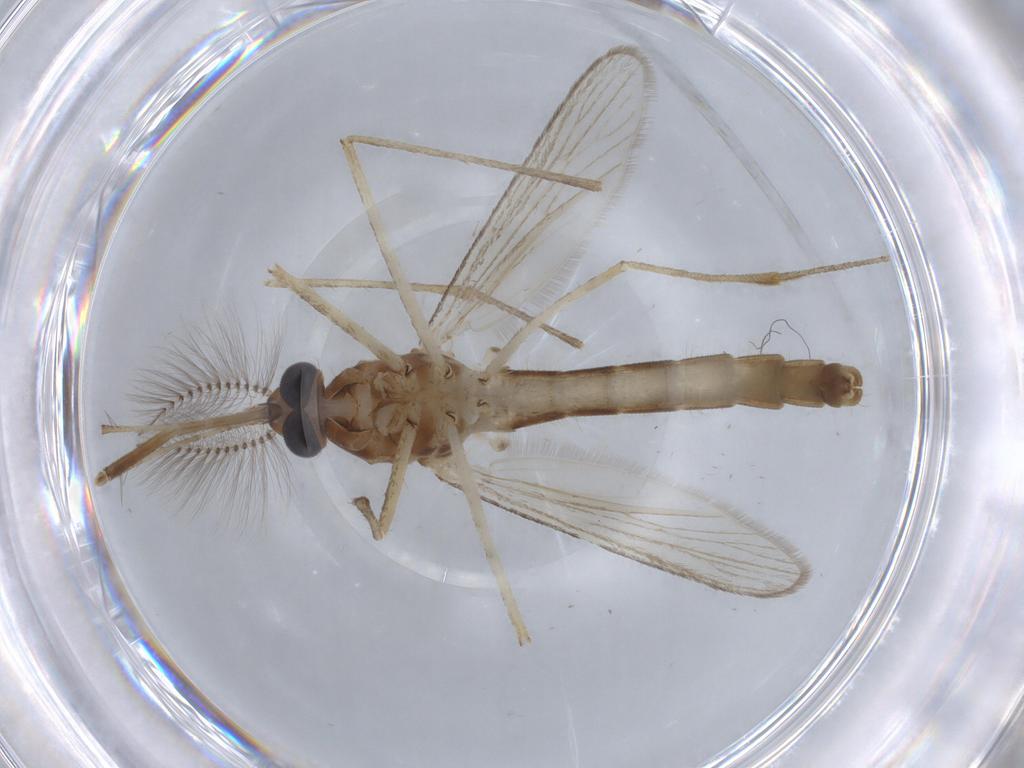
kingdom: Animalia
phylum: Arthropoda
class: Insecta
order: Diptera
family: Culicidae
